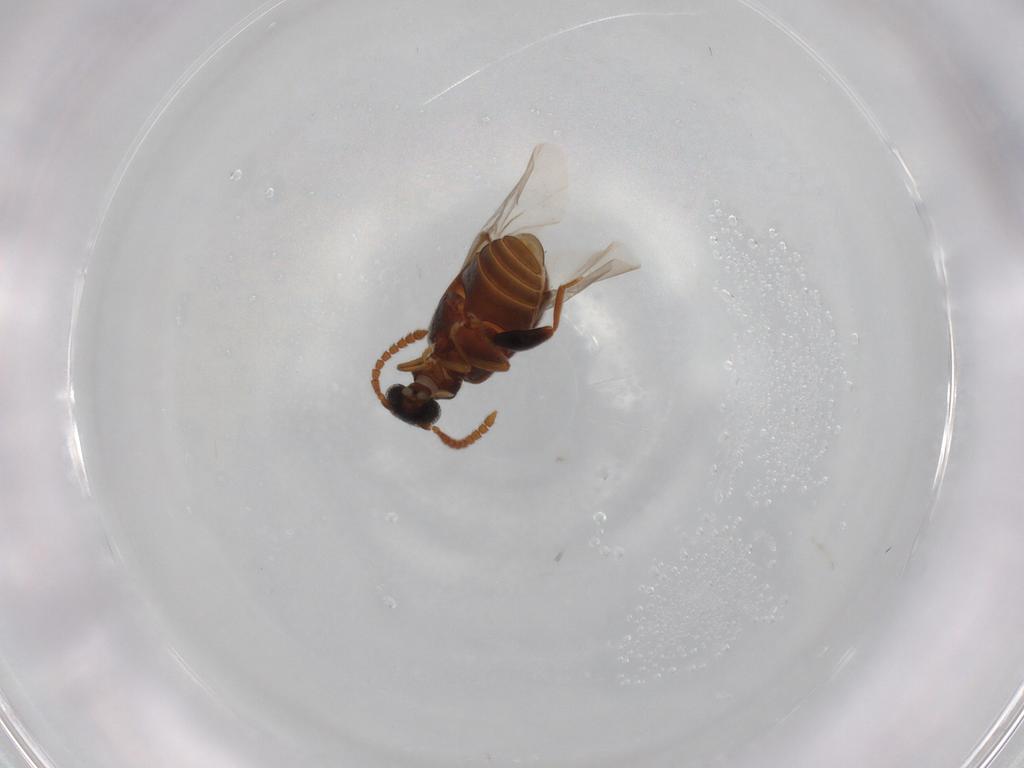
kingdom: Animalia
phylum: Arthropoda
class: Insecta
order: Coleoptera
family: Aderidae
